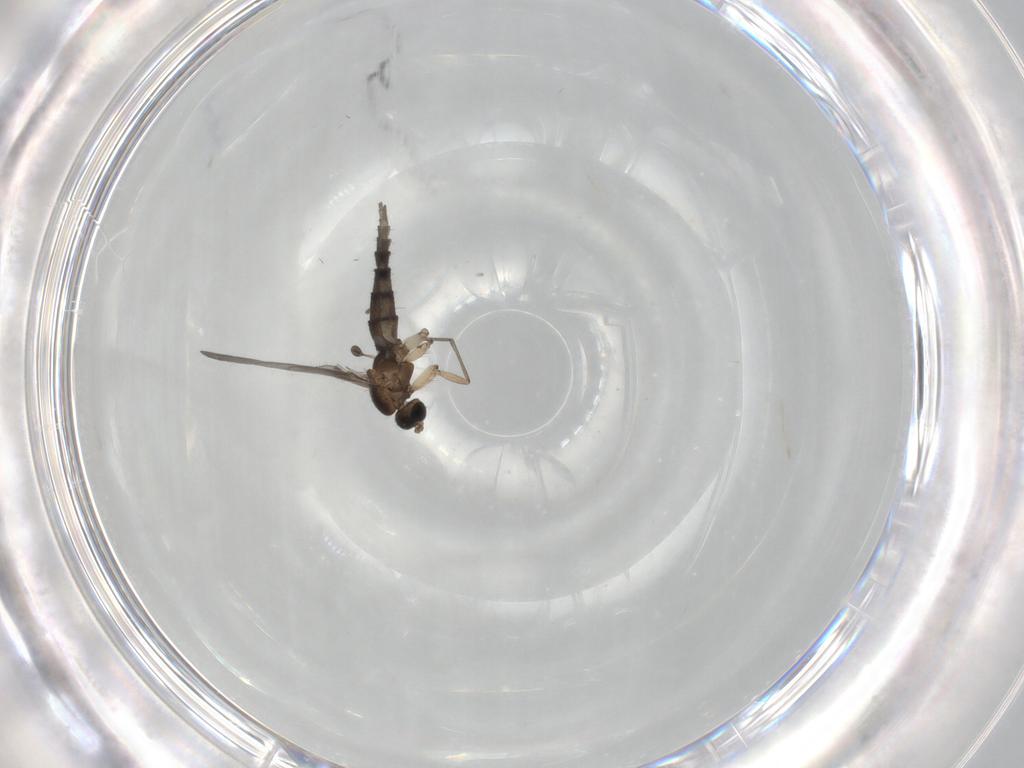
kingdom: Animalia
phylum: Arthropoda
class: Insecta
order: Diptera
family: Sciaridae
